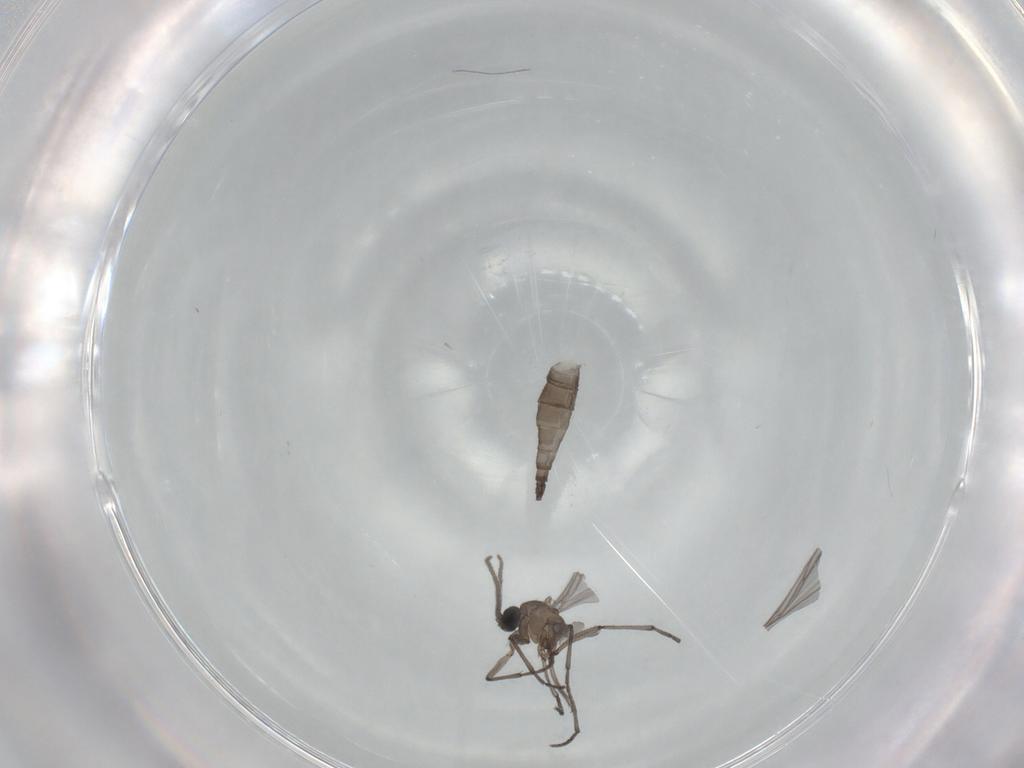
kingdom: Animalia
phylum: Arthropoda
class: Insecta
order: Diptera
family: Sciaridae
